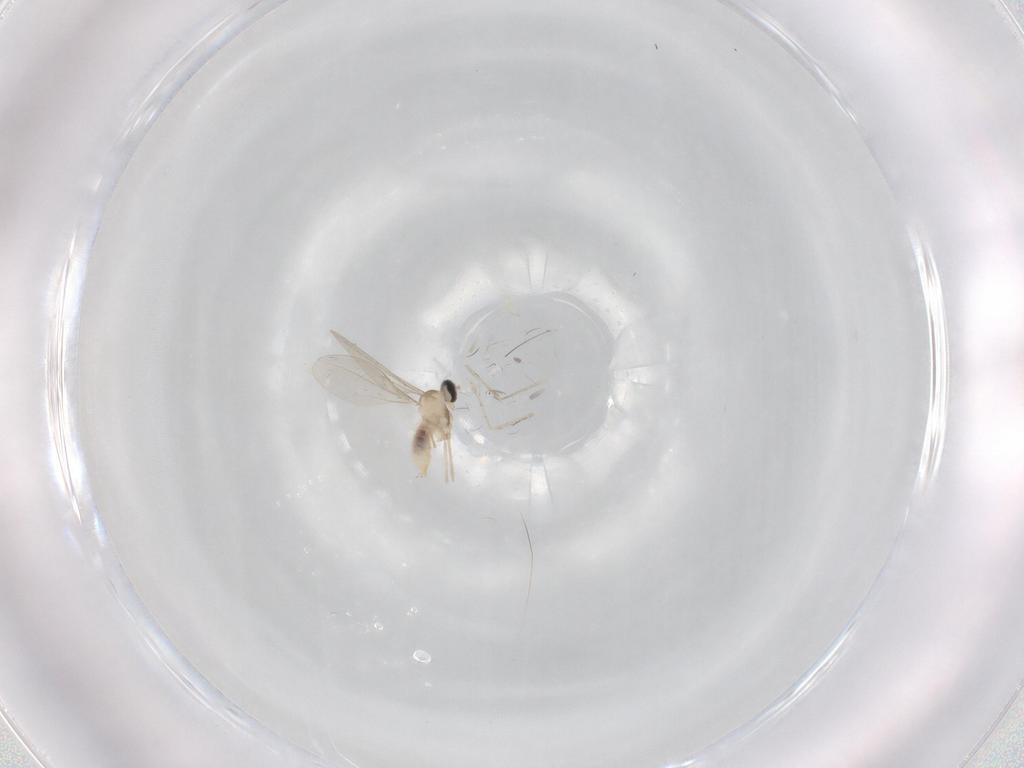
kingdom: Animalia
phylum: Arthropoda
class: Insecta
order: Diptera
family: Cecidomyiidae
